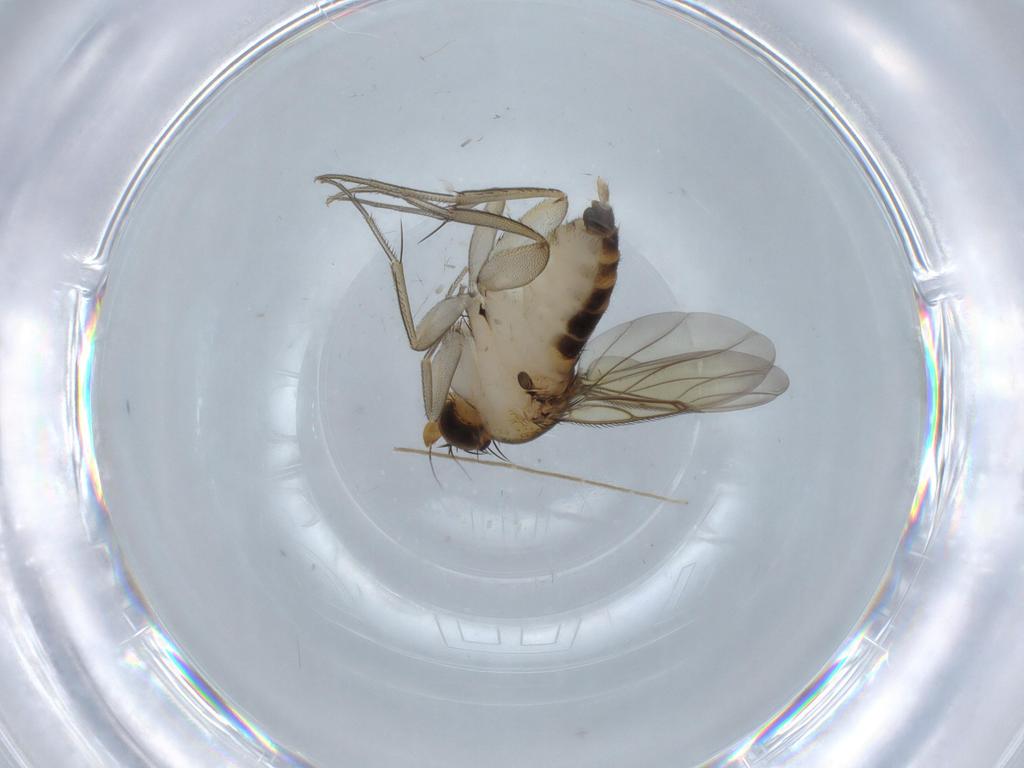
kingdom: Animalia
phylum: Arthropoda
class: Insecta
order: Diptera
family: Phoridae
